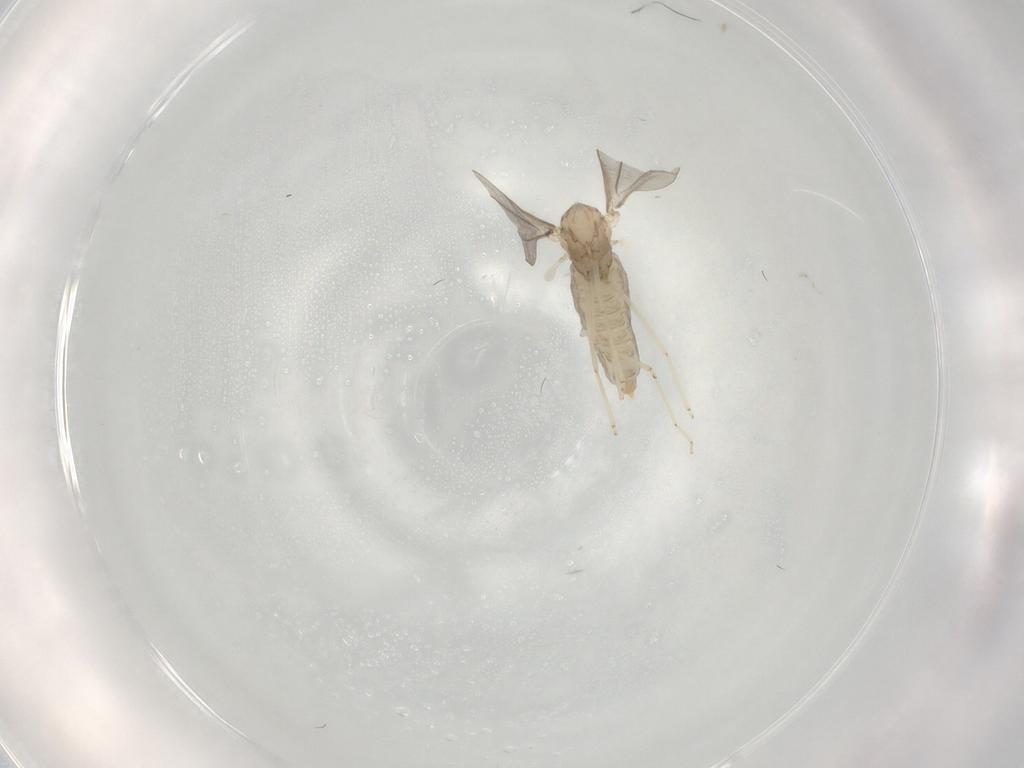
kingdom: Animalia
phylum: Arthropoda
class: Insecta
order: Diptera
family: Cecidomyiidae
